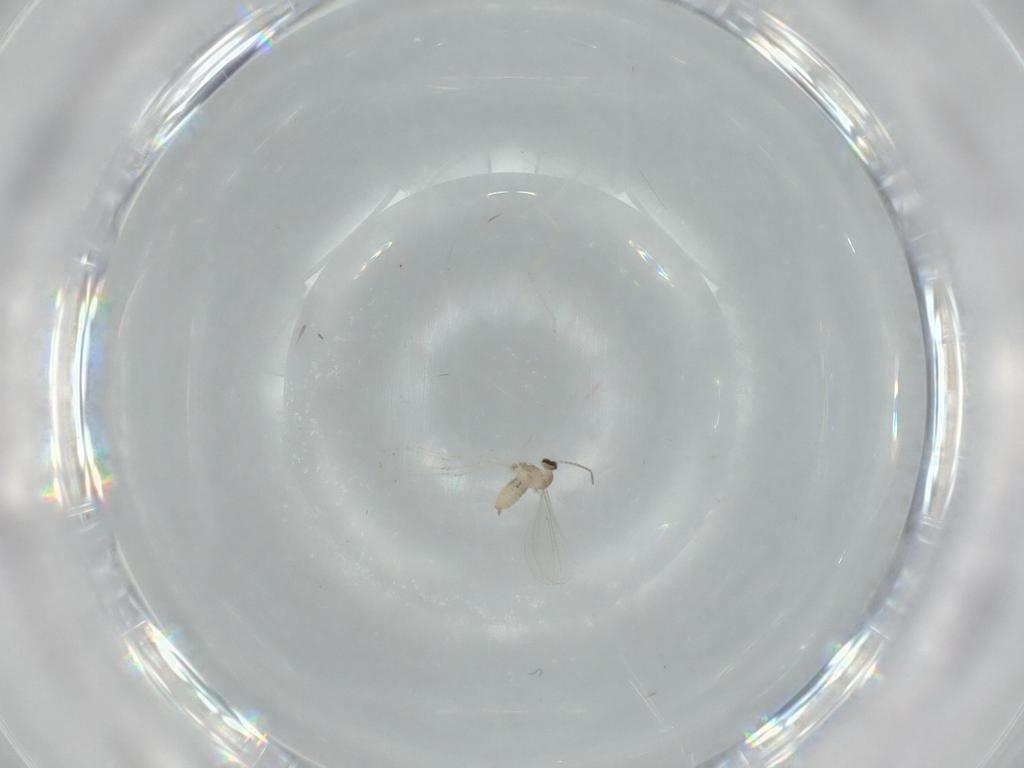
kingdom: Animalia
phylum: Arthropoda
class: Insecta
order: Diptera
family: Cecidomyiidae
